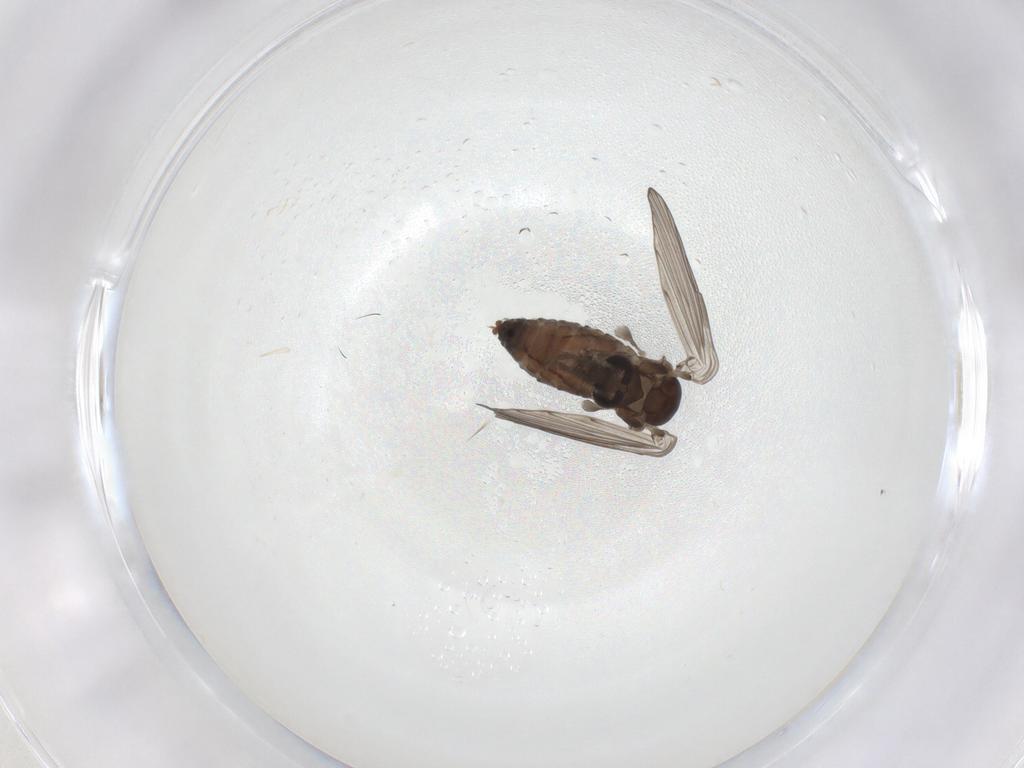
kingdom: Animalia
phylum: Arthropoda
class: Insecta
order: Diptera
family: Psychodidae
